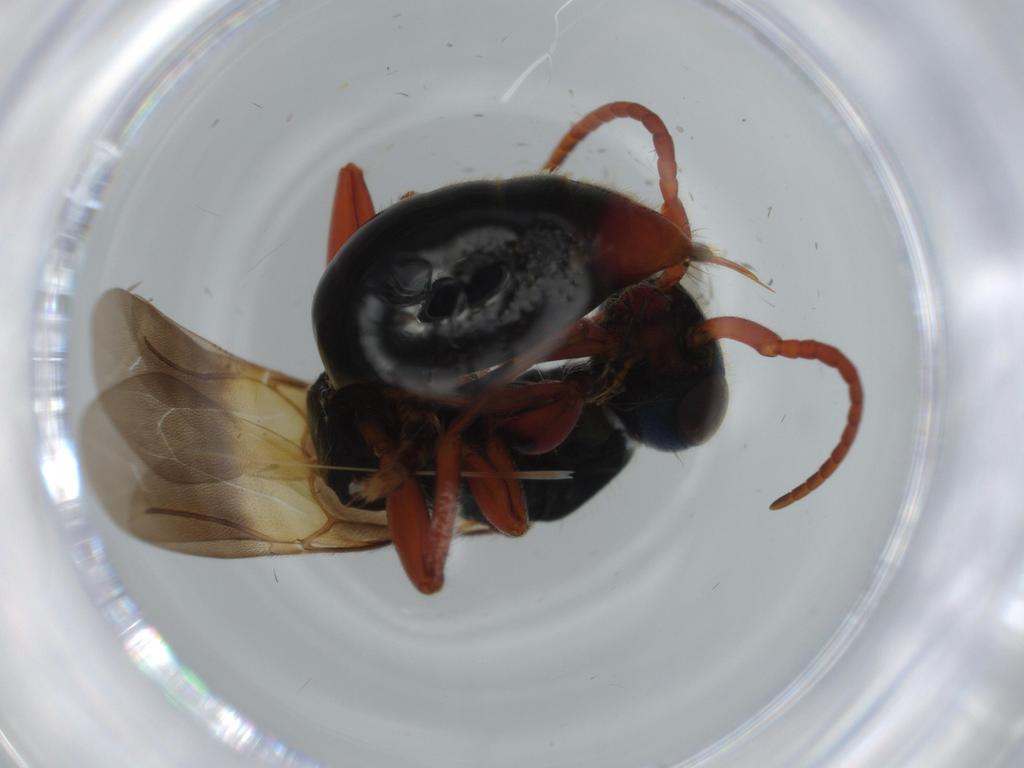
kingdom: Animalia
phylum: Arthropoda
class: Insecta
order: Hymenoptera
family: Bethylidae
